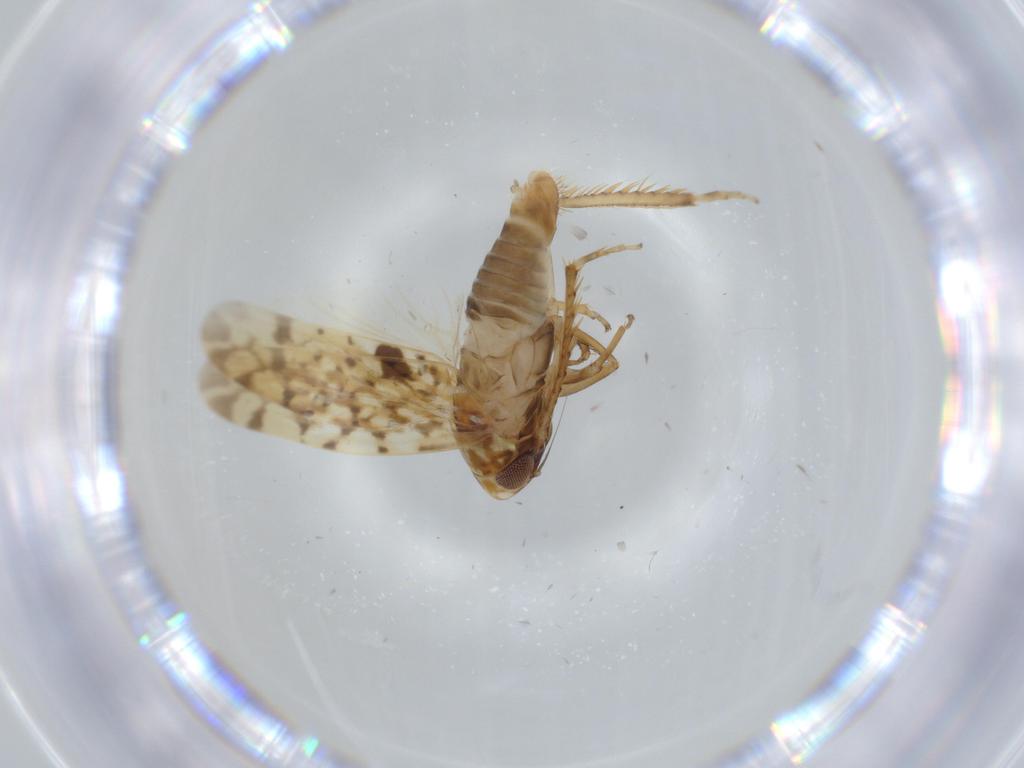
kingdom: Animalia
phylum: Arthropoda
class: Insecta
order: Hemiptera
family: Cicadellidae
